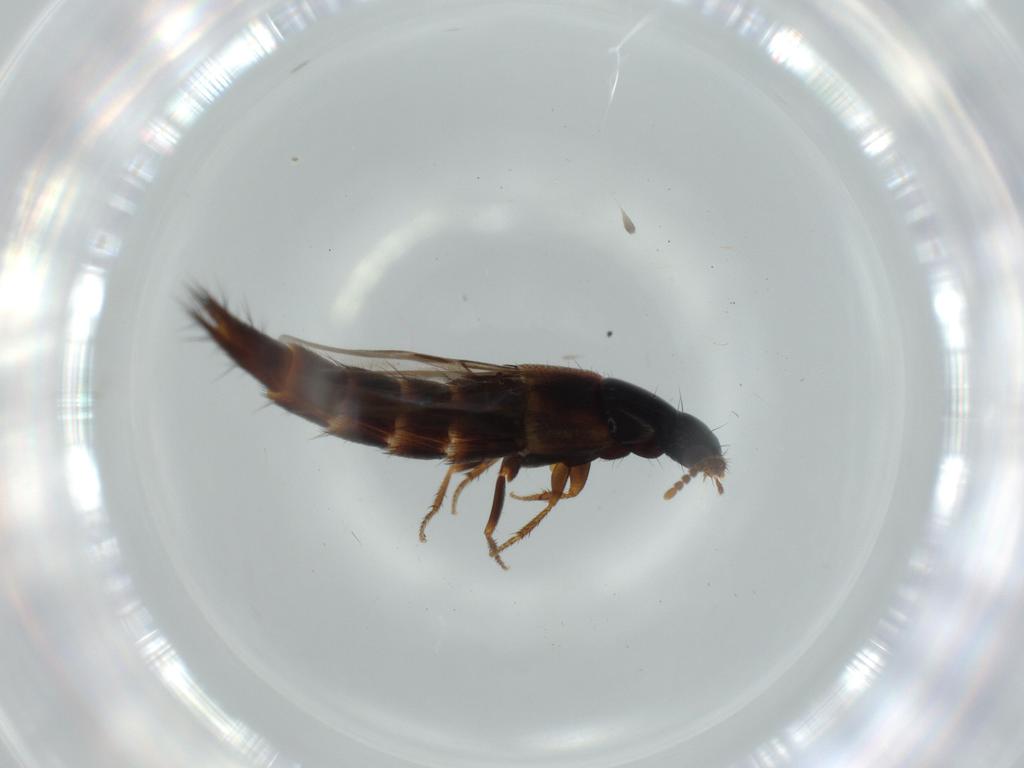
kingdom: Animalia
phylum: Arthropoda
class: Insecta
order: Coleoptera
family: Staphylinidae
